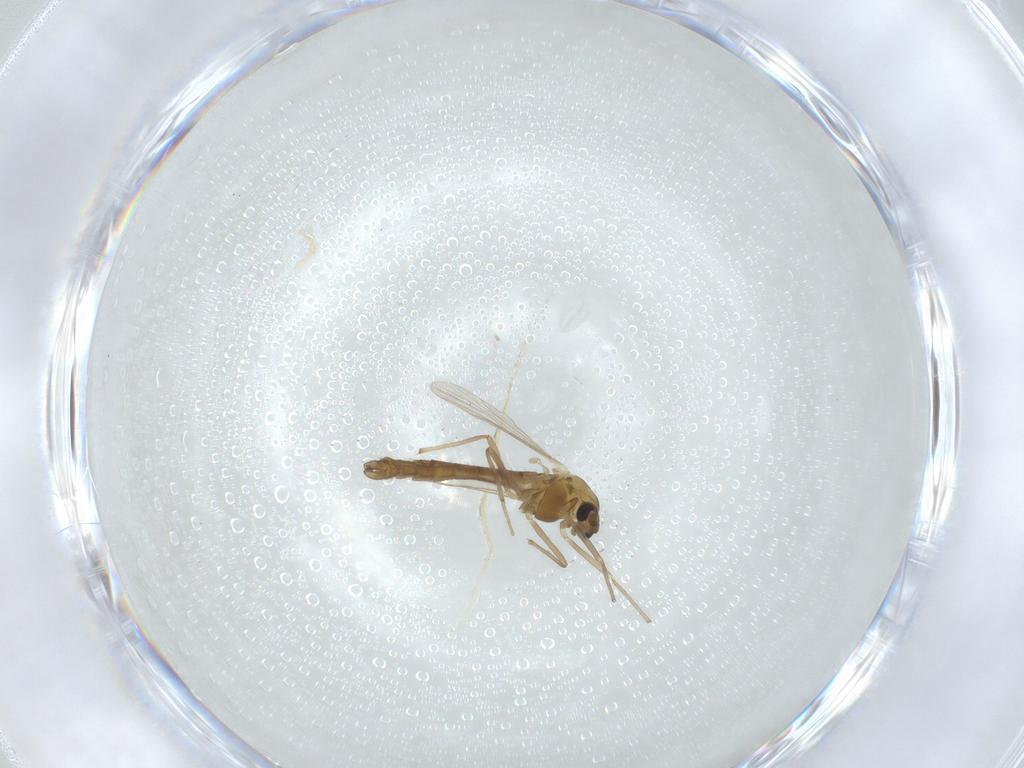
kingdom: Animalia
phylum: Arthropoda
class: Insecta
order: Diptera
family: Chironomidae
